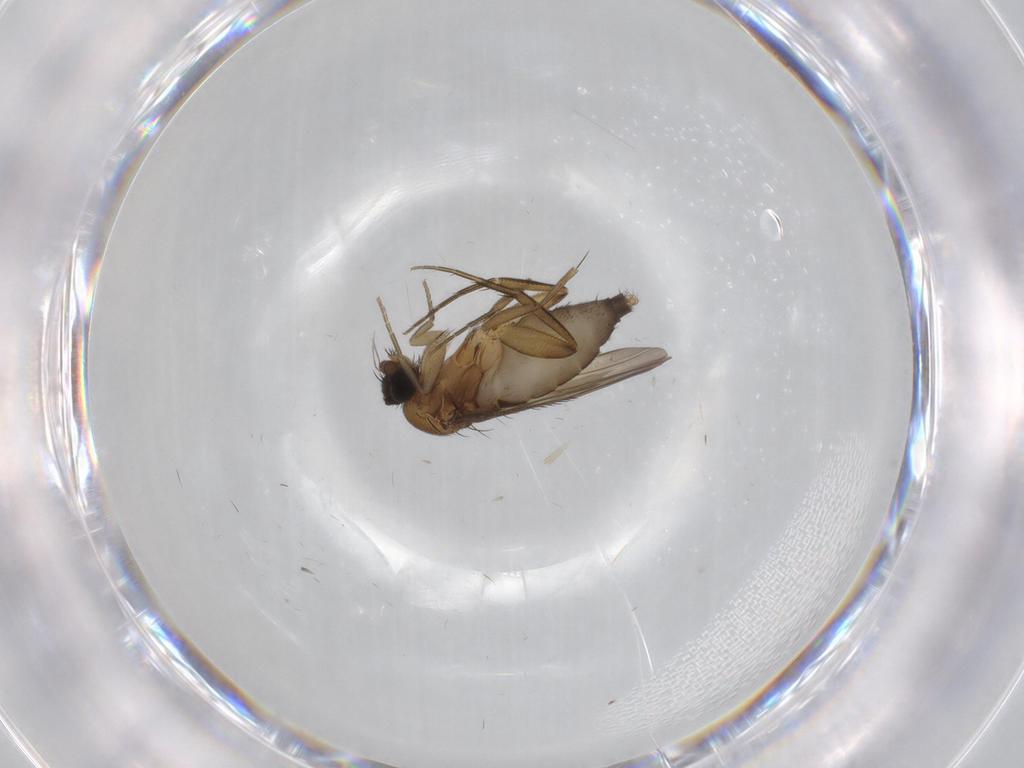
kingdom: Animalia
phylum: Arthropoda
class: Insecta
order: Diptera
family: Phoridae
